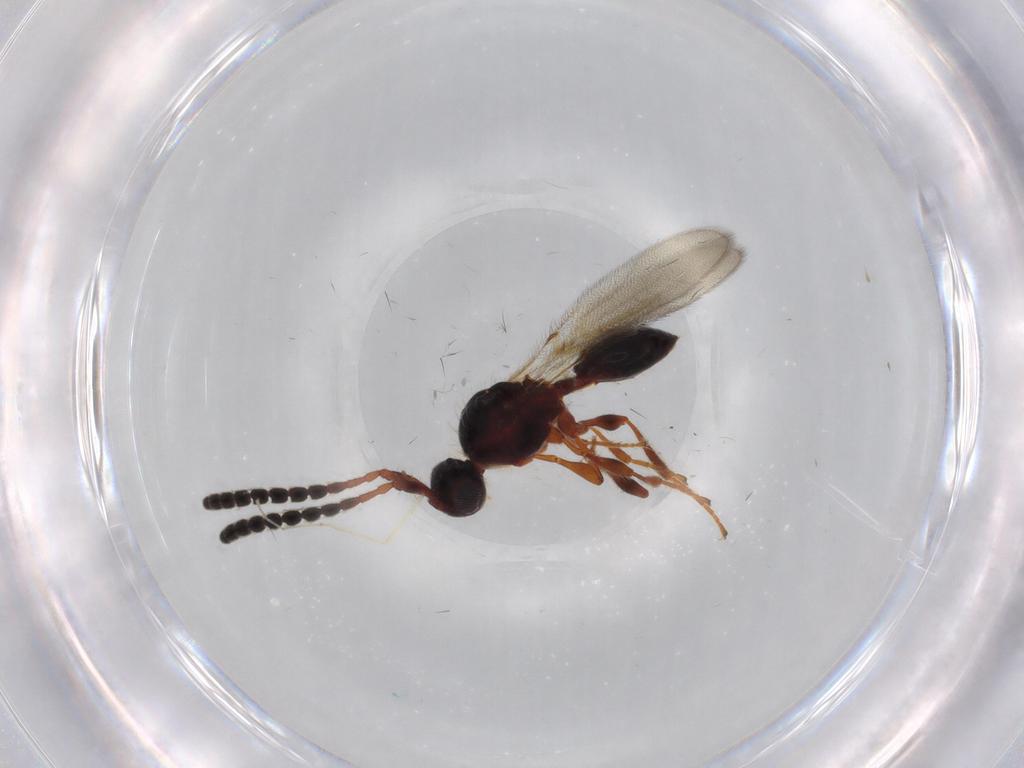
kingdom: Animalia
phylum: Arthropoda
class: Insecta
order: Hymenoptera
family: Diapriidae
